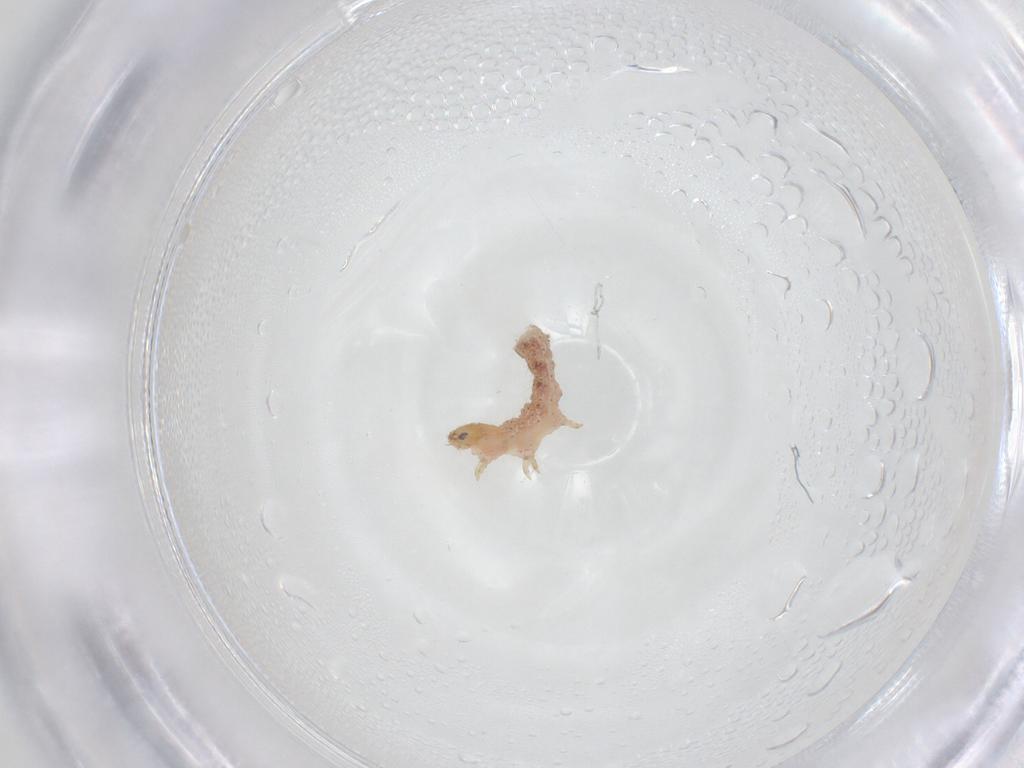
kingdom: Animalia
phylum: Arthropoda
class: Insecta
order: Lepidoptera
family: Gelechiidae
